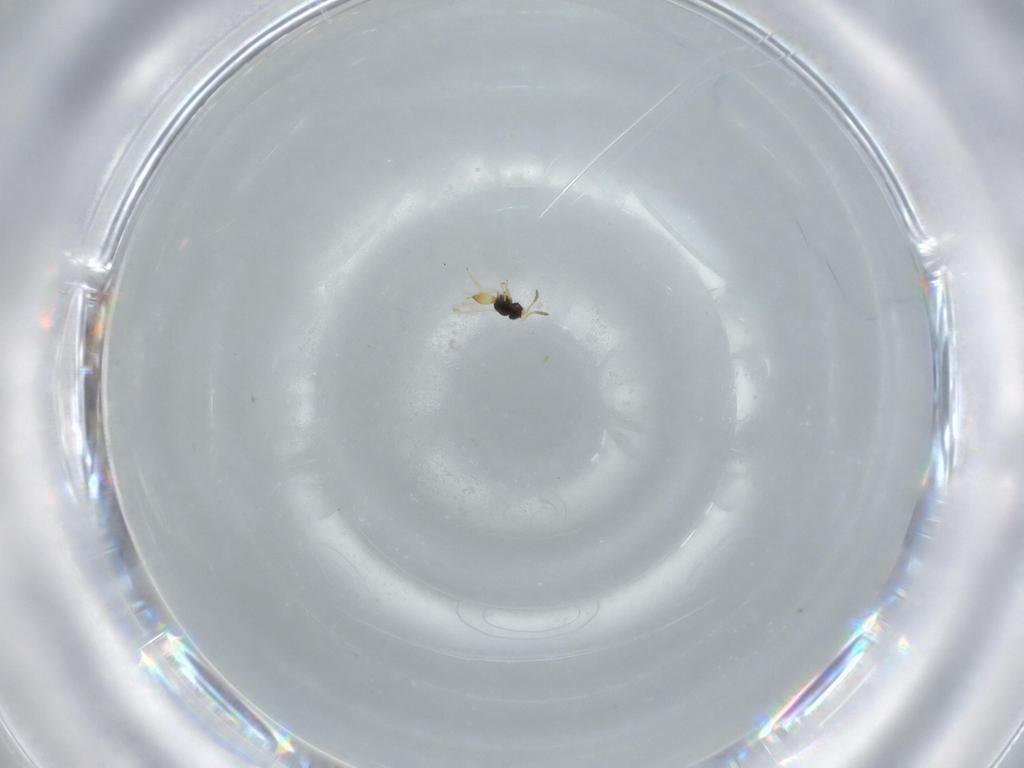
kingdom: Animalia
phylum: Arthropoda
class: Insecta
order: Hymenoptera
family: Scelionidae
